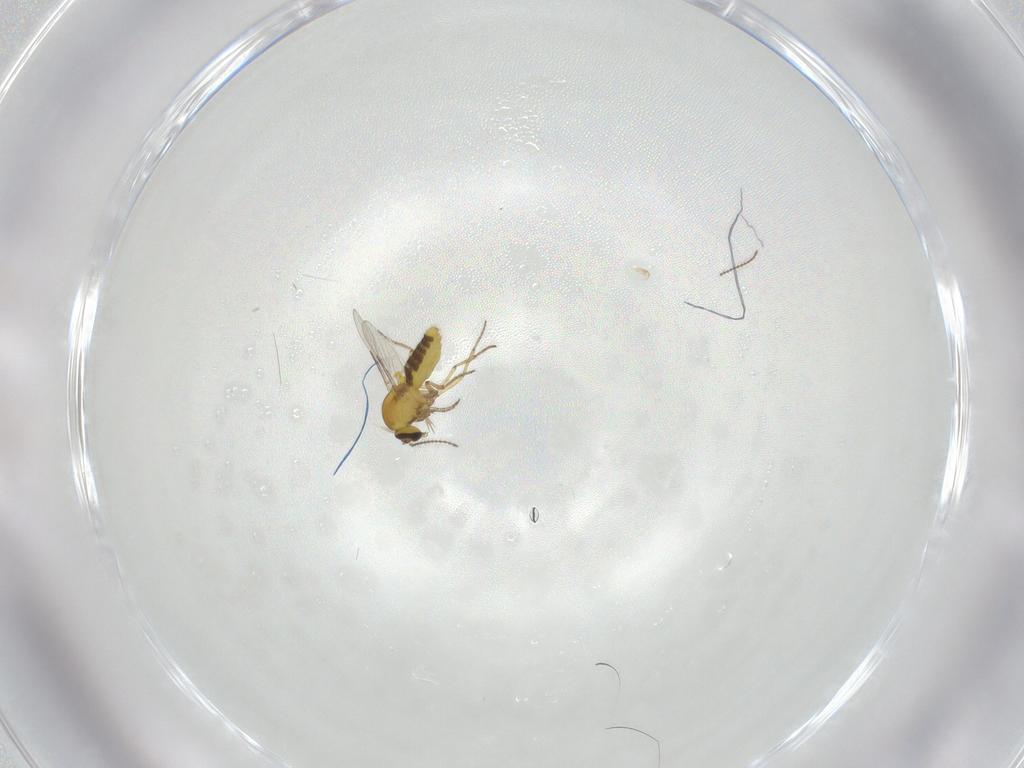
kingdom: Animalia
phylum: Arthropoda
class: Insecta
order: Diptera
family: Ceratopogonidae
